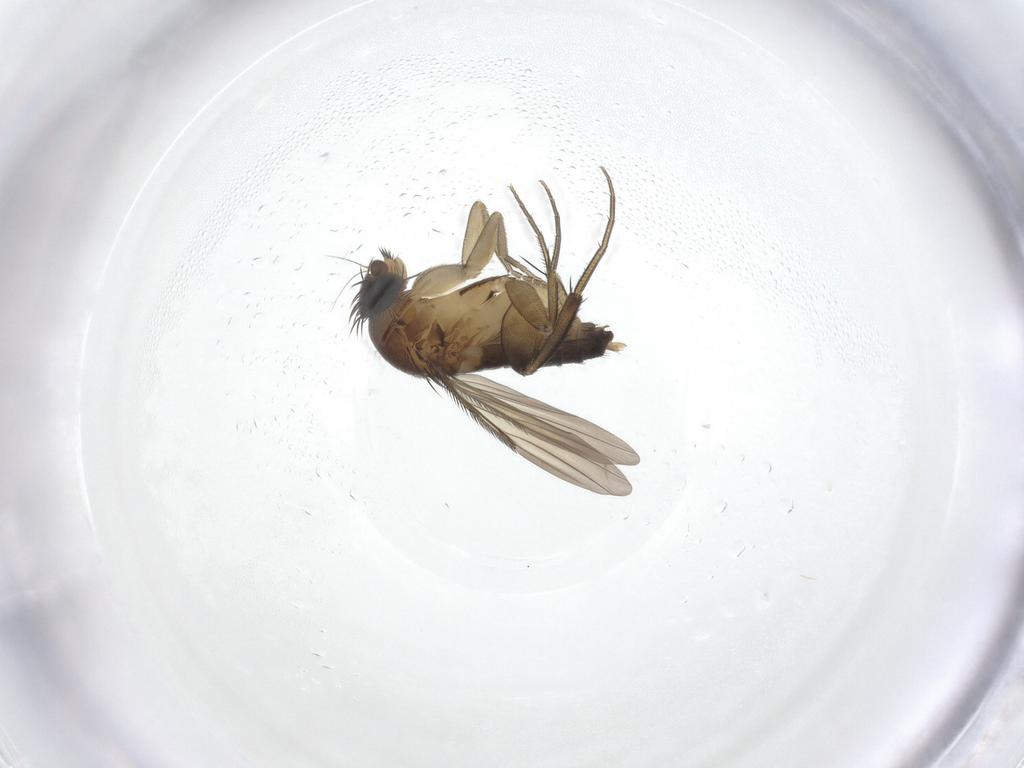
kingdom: Animalia
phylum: Arthropoda
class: Insecta
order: Diptera
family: Phoridae
